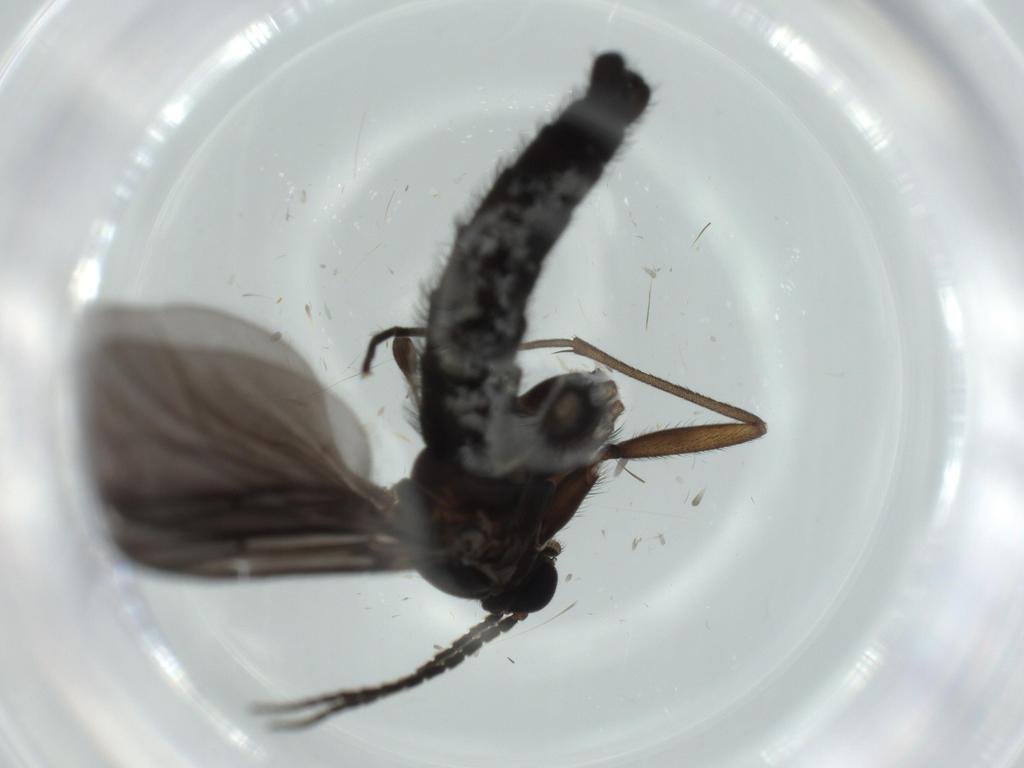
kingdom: Animalia
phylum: Arthropoda
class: Insecta
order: Diptera
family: Sciaridae
